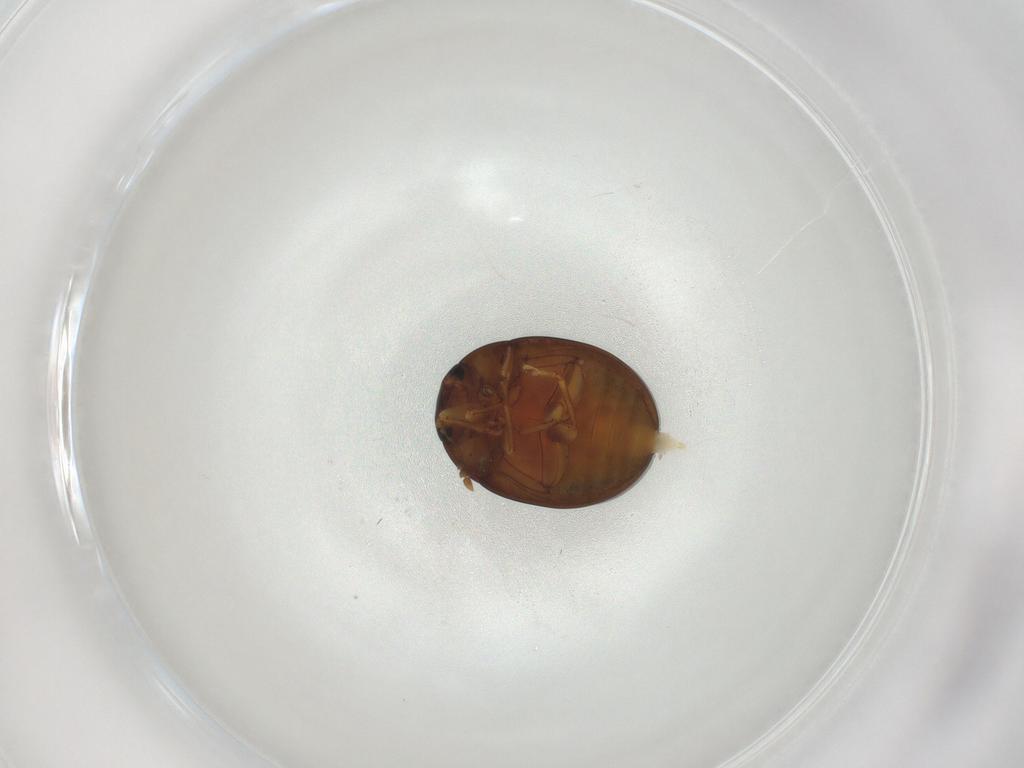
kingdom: Animalia
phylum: Arthropoda
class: Insecta
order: Coleoptera
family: Phalacridae
